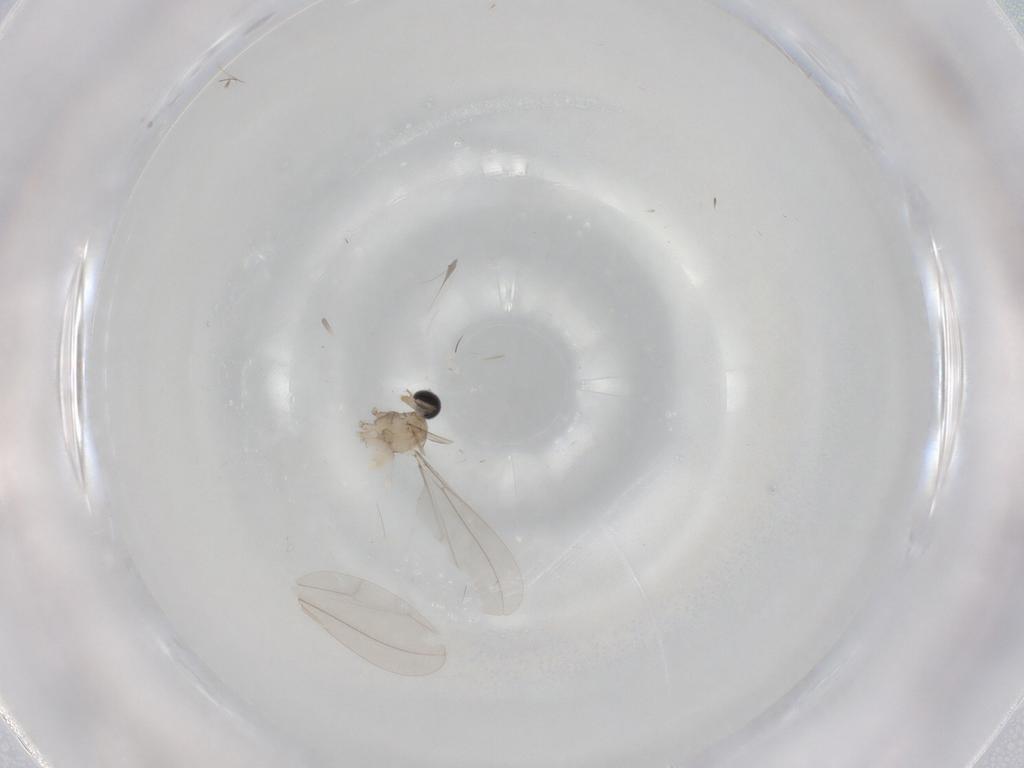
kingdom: Animalia
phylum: Arthropoda
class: Insecta
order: Diptera
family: Cecidomyiidae
